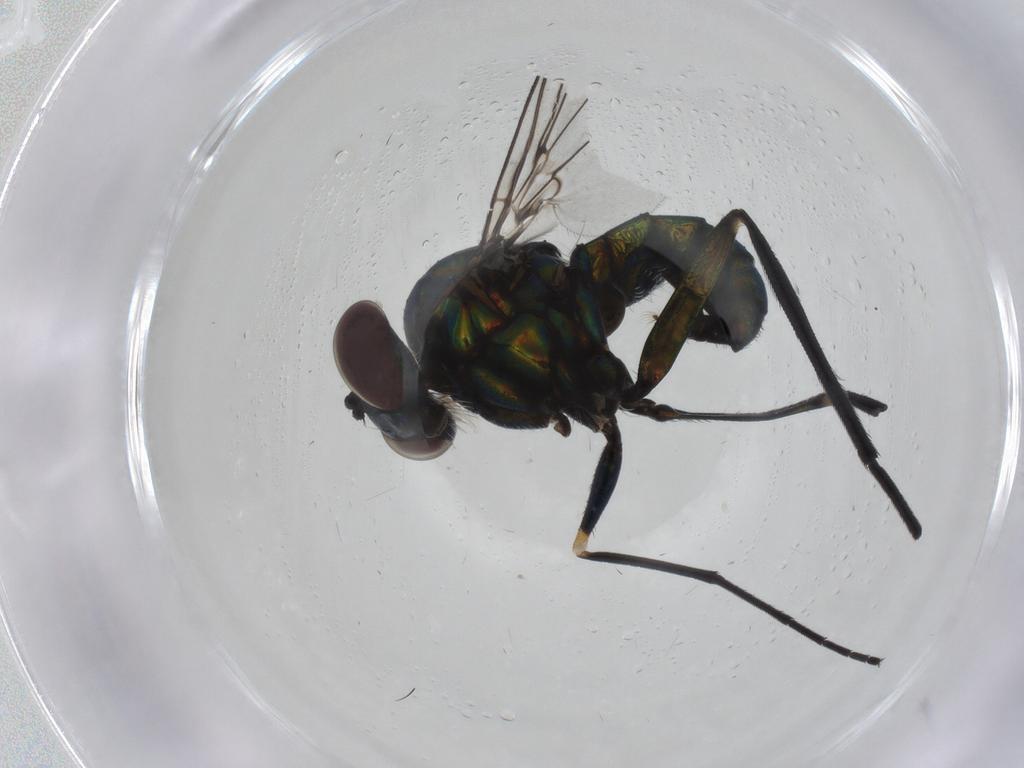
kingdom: Animalia
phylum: Arthropoda
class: Insecta
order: Diptera
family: Dolichopodidae
